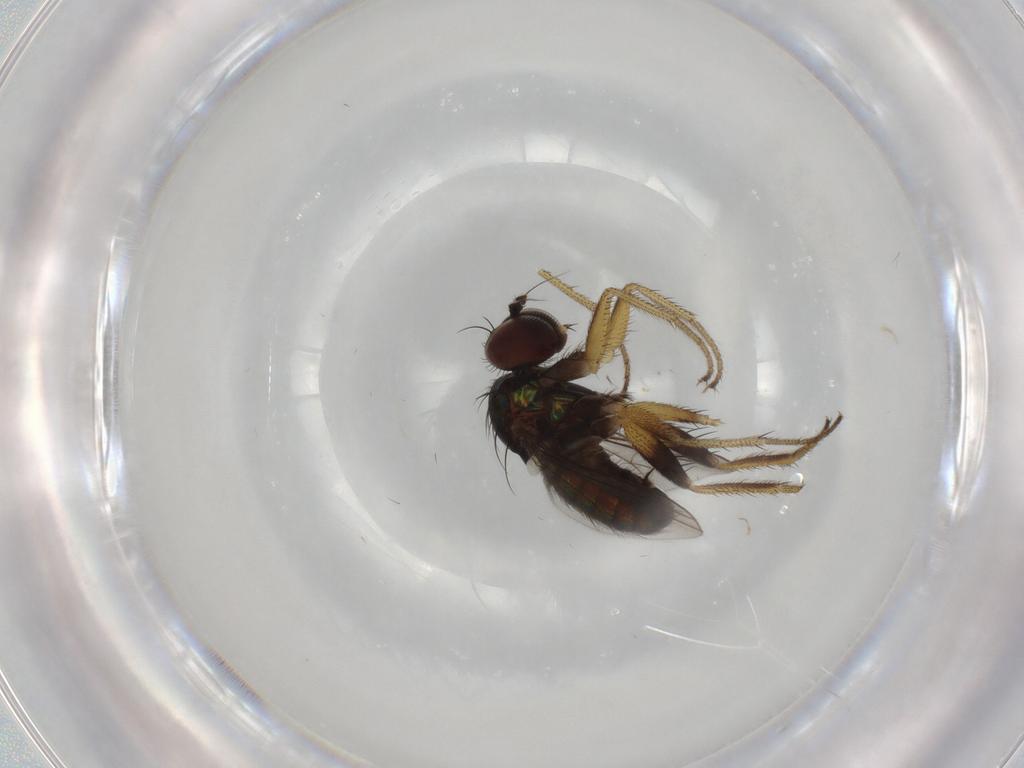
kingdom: Animalia
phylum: Arthropoda
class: Insecta
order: Diptera
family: Dolichopodidae
